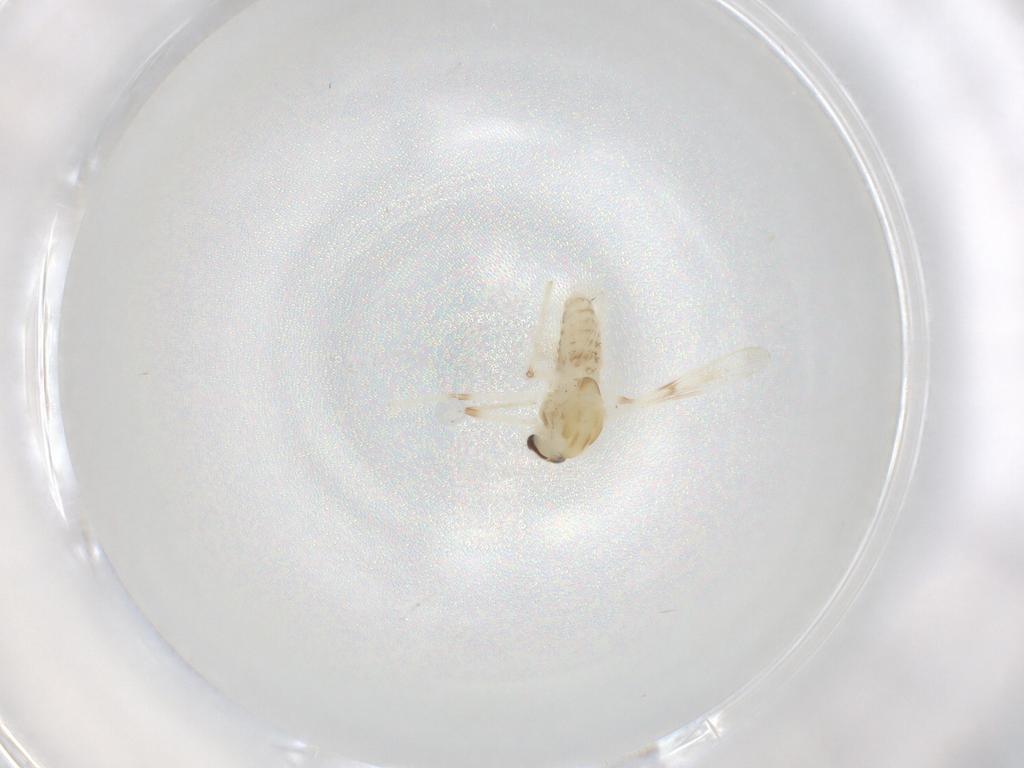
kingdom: Animalia
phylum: Arthropoda
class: Insecta
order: Diptera
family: Chironomidae
